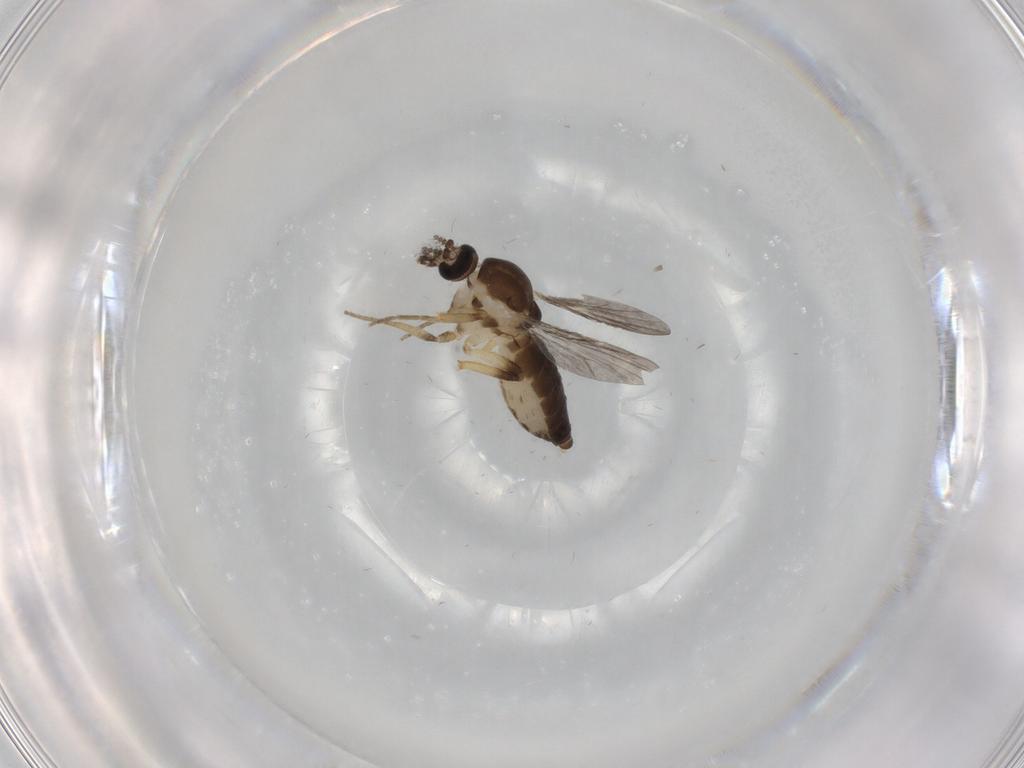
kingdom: Animalia
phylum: Arthropoda
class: Insecta
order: Diptera
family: Ceratopogonidae
